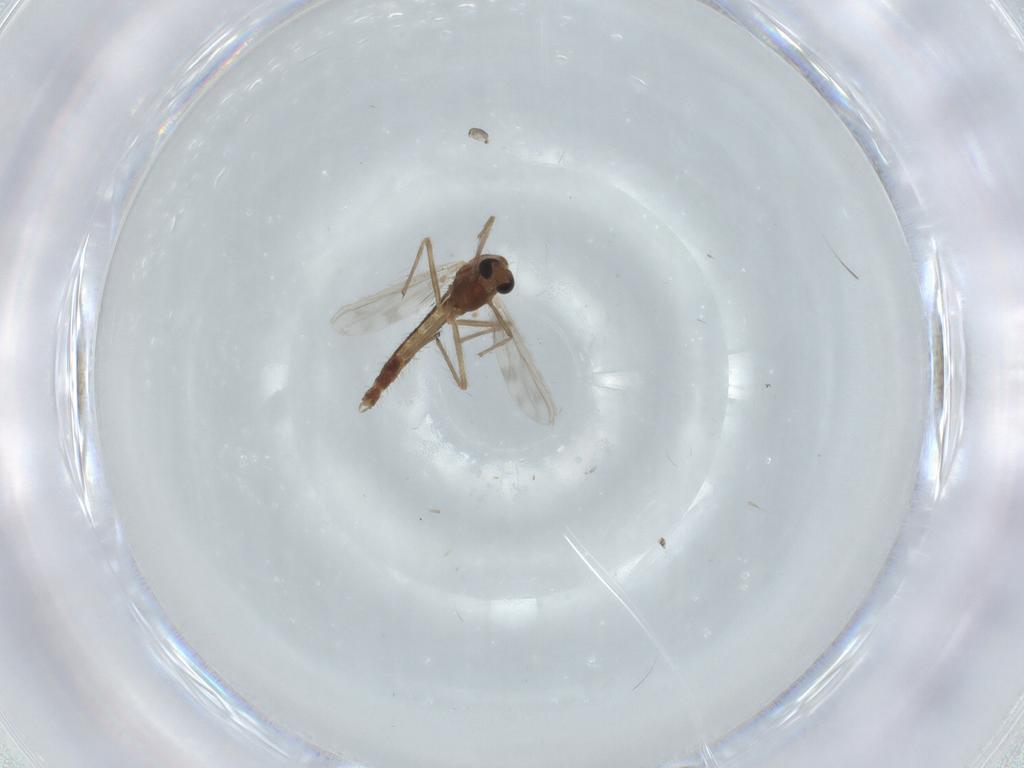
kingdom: Animalia
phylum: Arthropoda
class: Insecta
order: Diptera
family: Chironomidae
